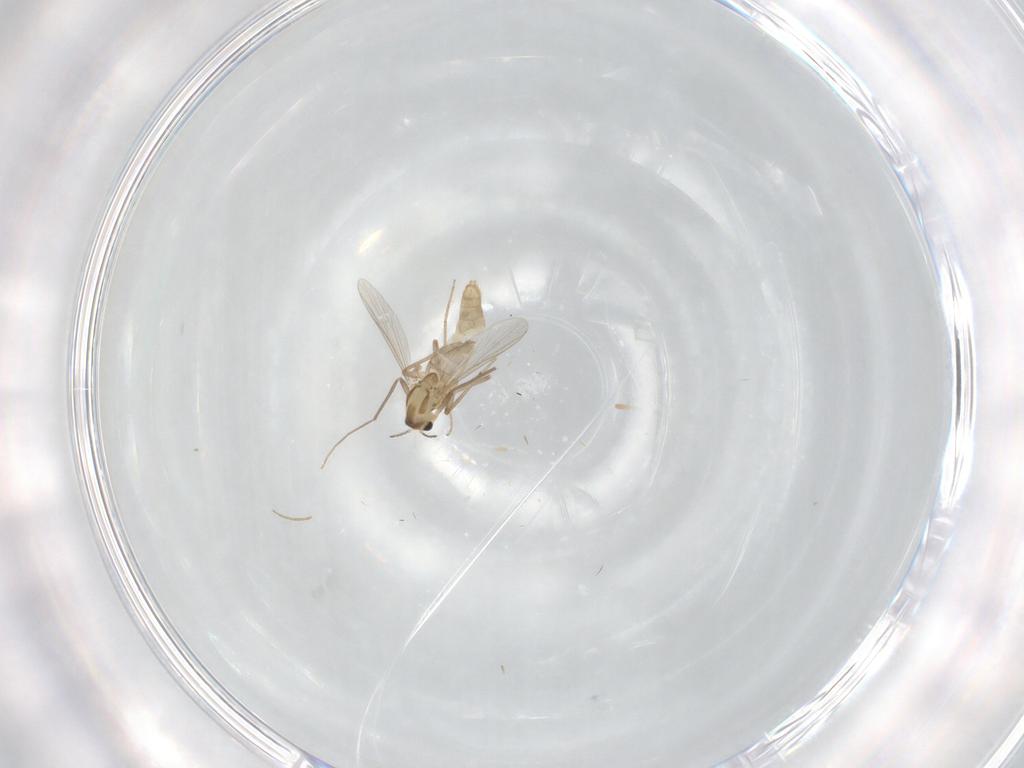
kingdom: Animalia
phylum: Arthropoda
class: Insecta
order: Diptera
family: Chironomidae
